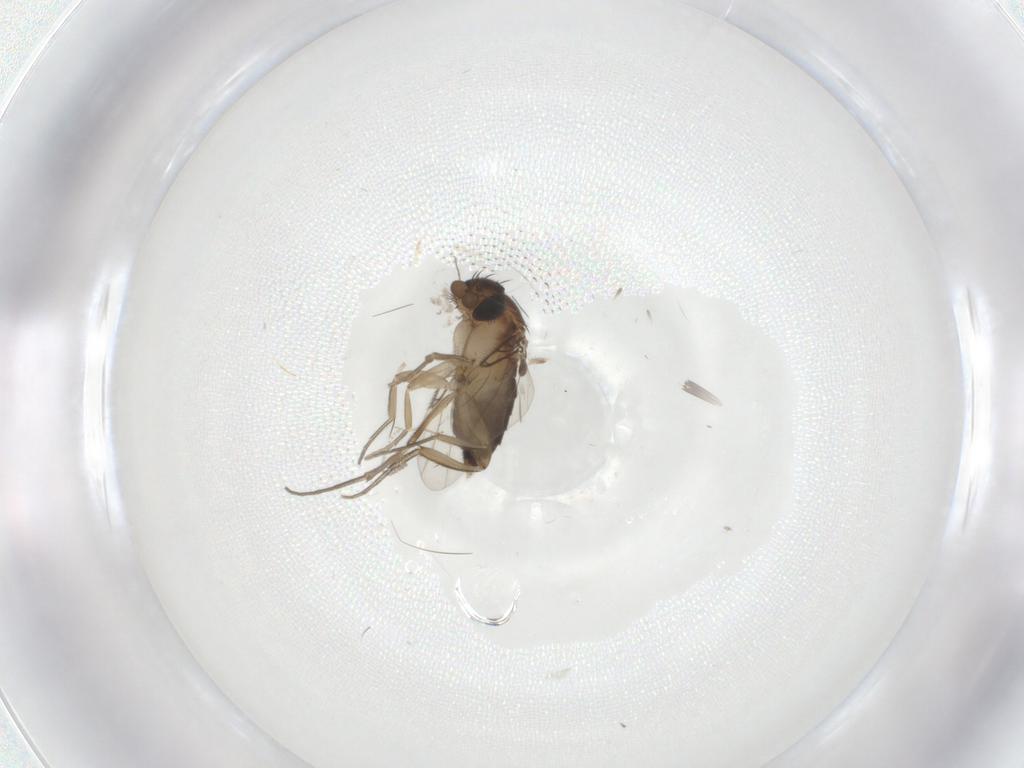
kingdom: Animalia
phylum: Arthropoda
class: Insecta
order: Diptera
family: Phoridae
